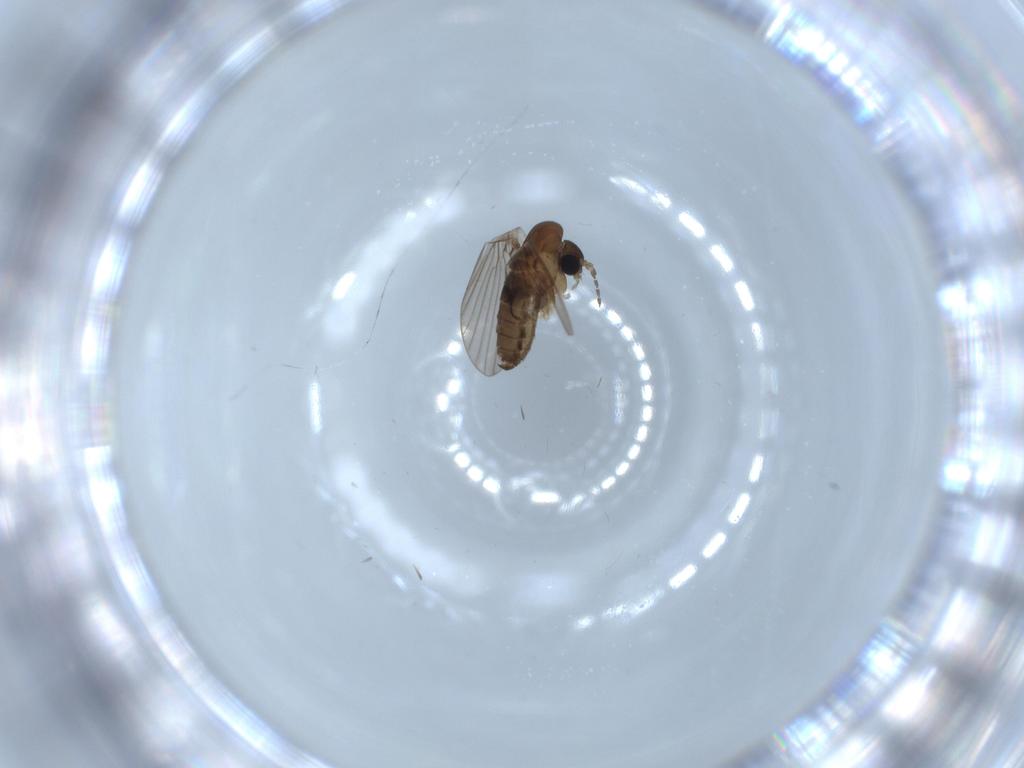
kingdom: Animalia
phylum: Arthropoda
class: Insecta
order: Diptera
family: Psychodidae
